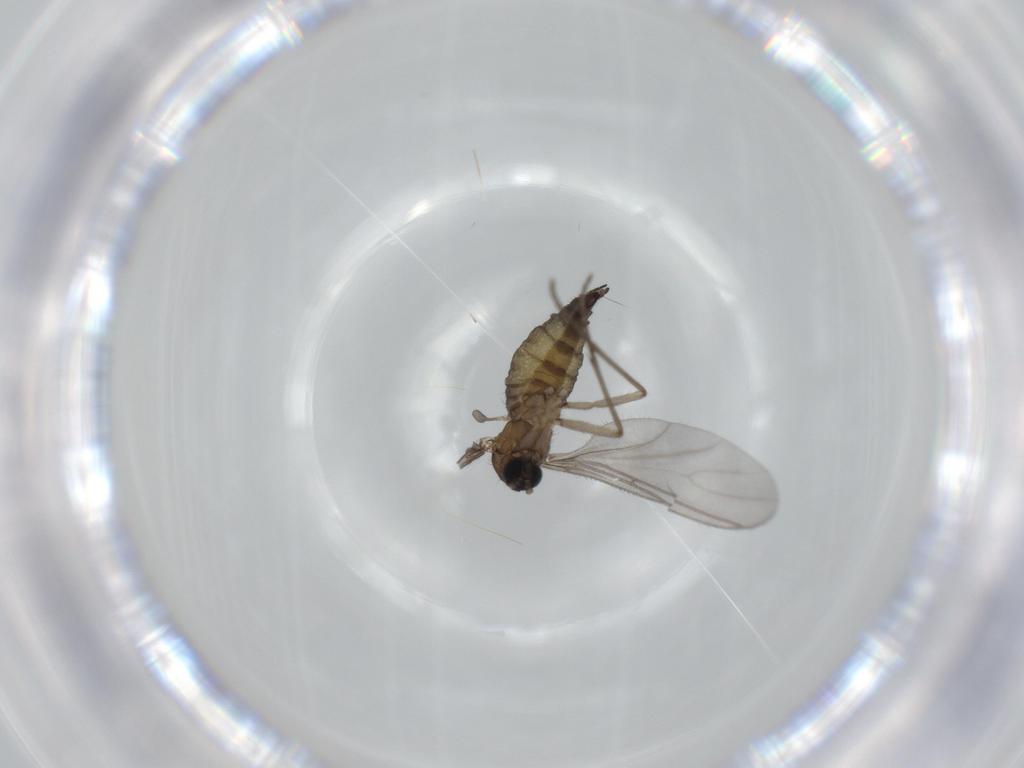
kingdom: Animalia
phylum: Arthropoda
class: Insecta
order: Diptera
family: Sciaridae
